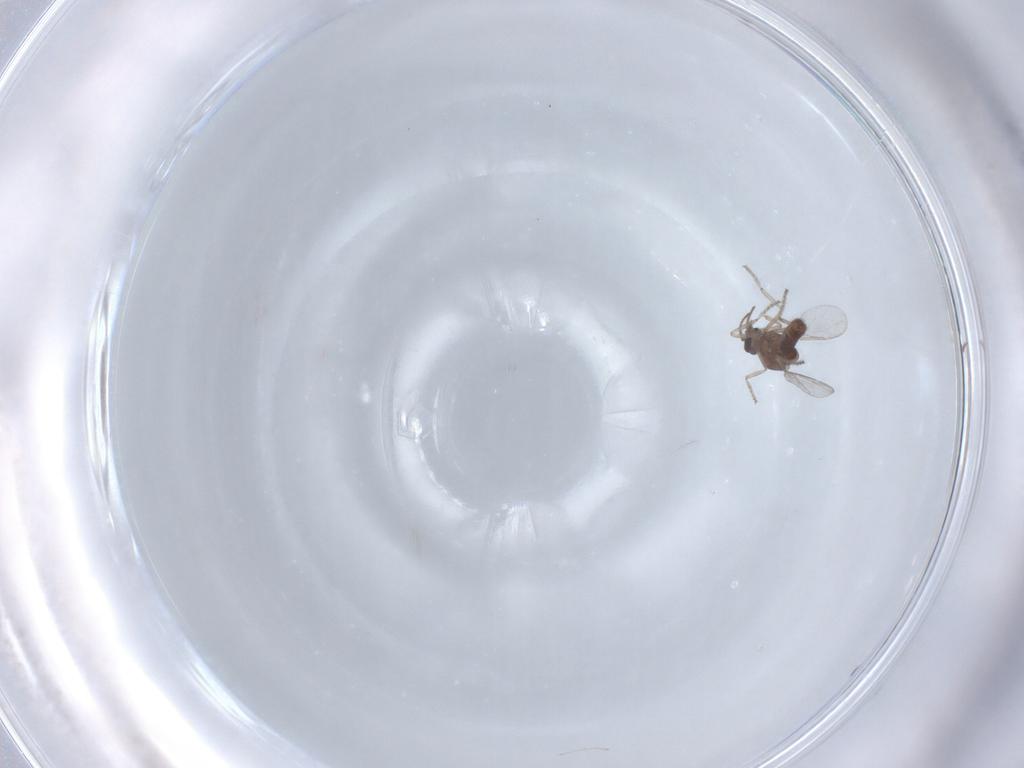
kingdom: Animalia
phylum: Arthropoda
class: Insecta
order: Diptera
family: Ceratopogonidae
